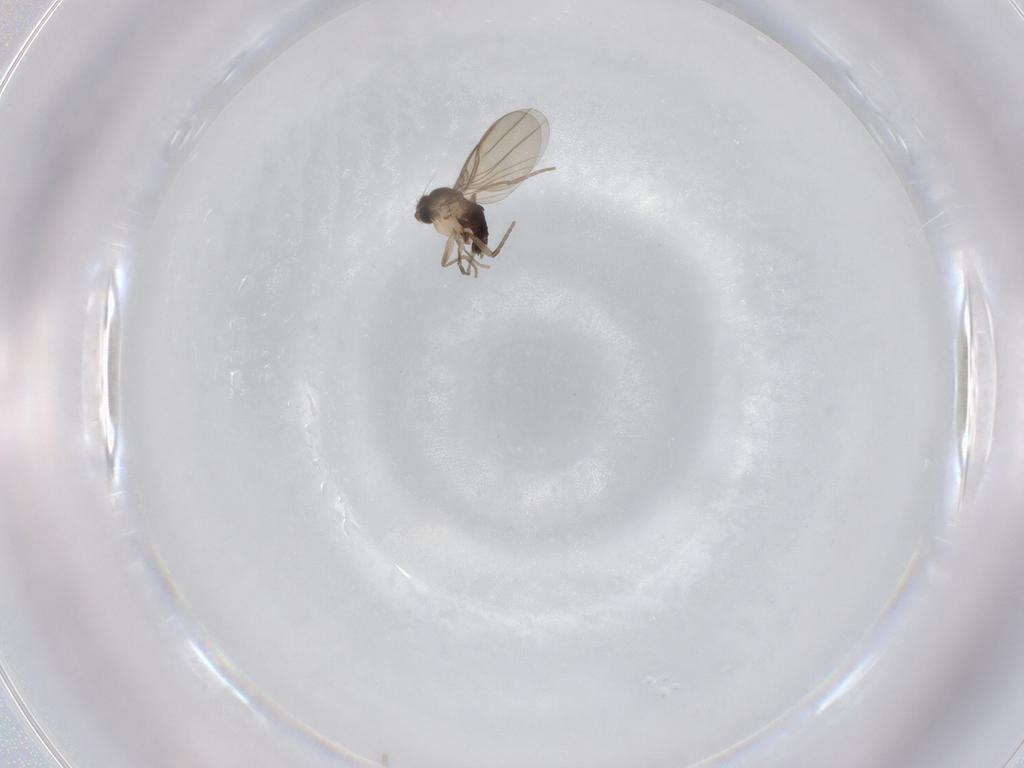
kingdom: Animalia
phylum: Arthropoda
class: Insecta
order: Diptera
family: Phoridae
